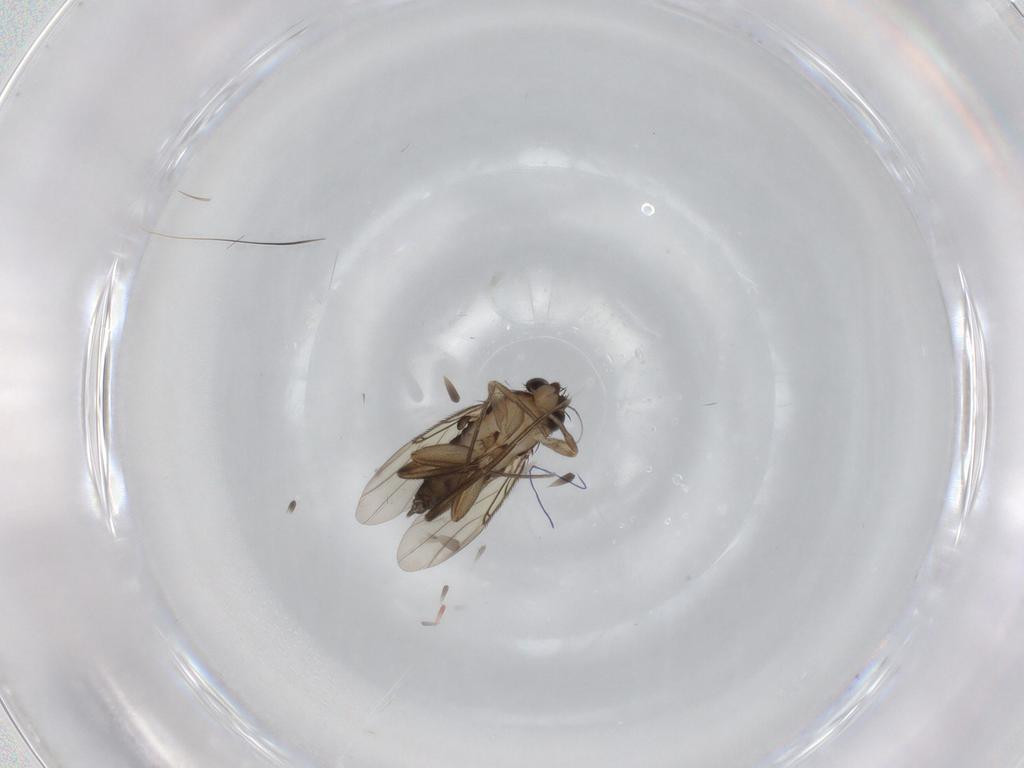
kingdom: Animalia
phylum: Arthropoda
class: Insecta
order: Diptera
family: Phoridae
